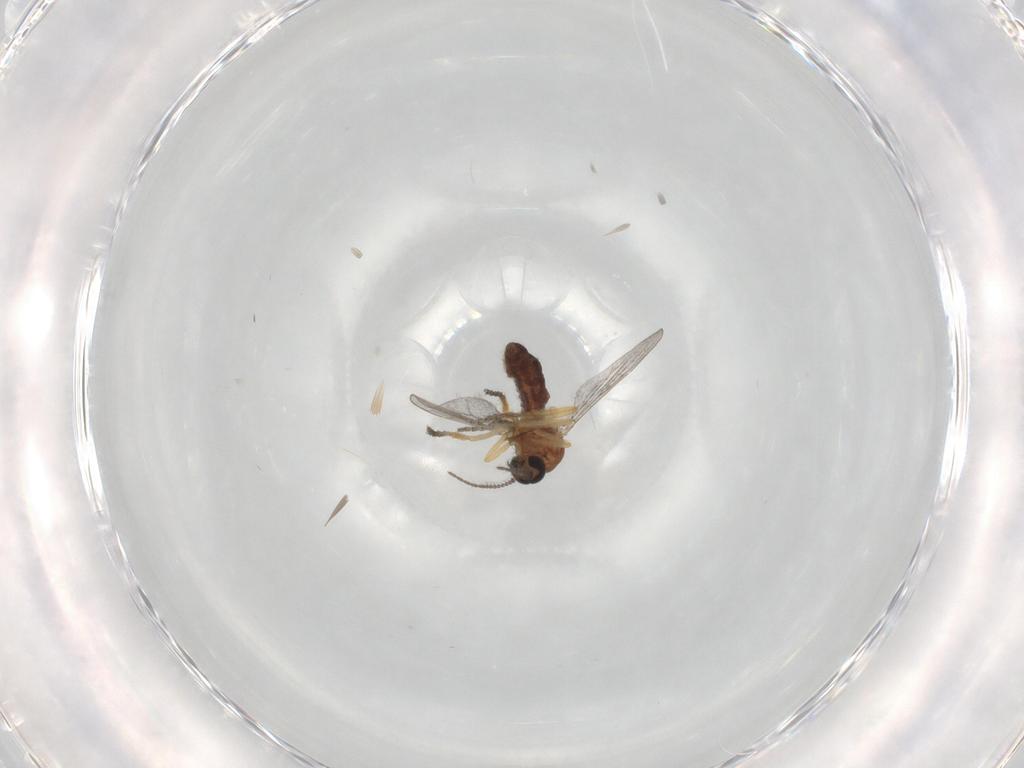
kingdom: Animalia
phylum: Arthropoda
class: Insecta
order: Diptera
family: Ceratopogonidae
